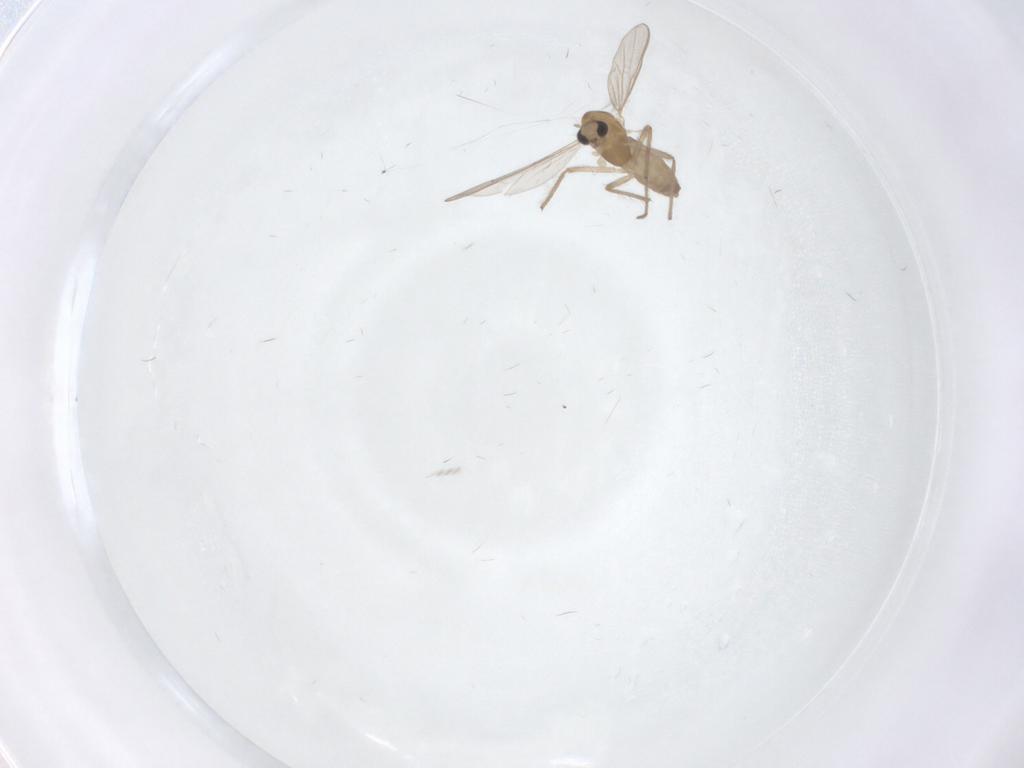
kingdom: Animalia
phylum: Arthropoda
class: Insecta
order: Diptera
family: Chironomidae
